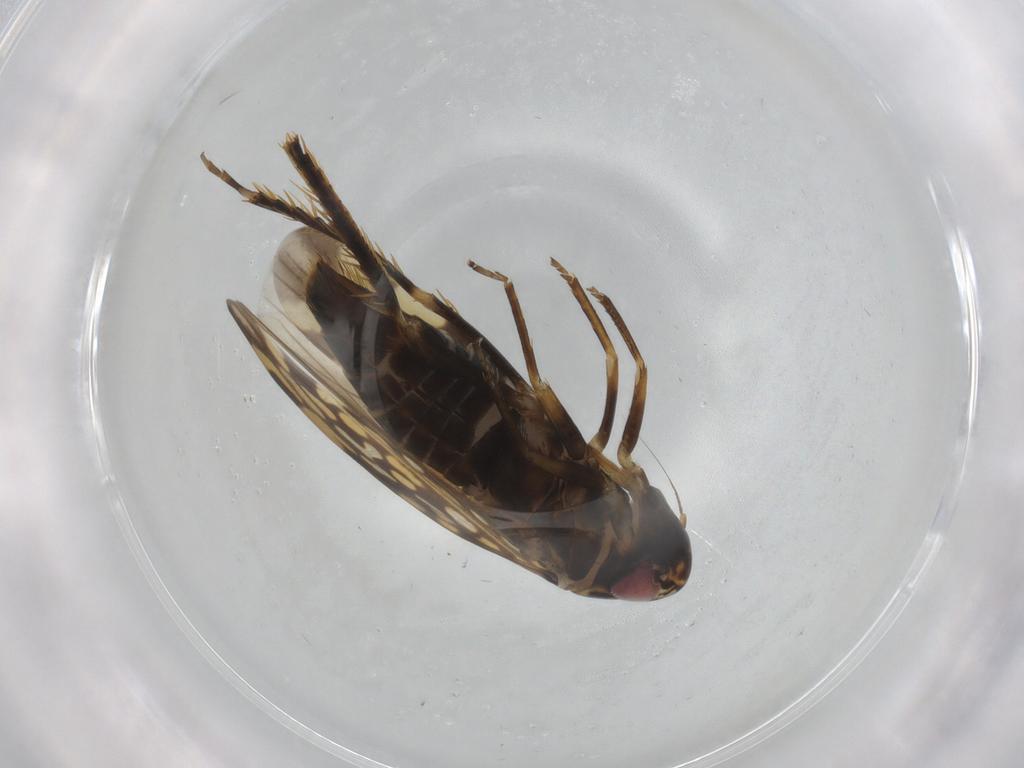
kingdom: Animalia
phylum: Arthropoda
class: Insecta
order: Hemiptera
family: Cicadellidae
